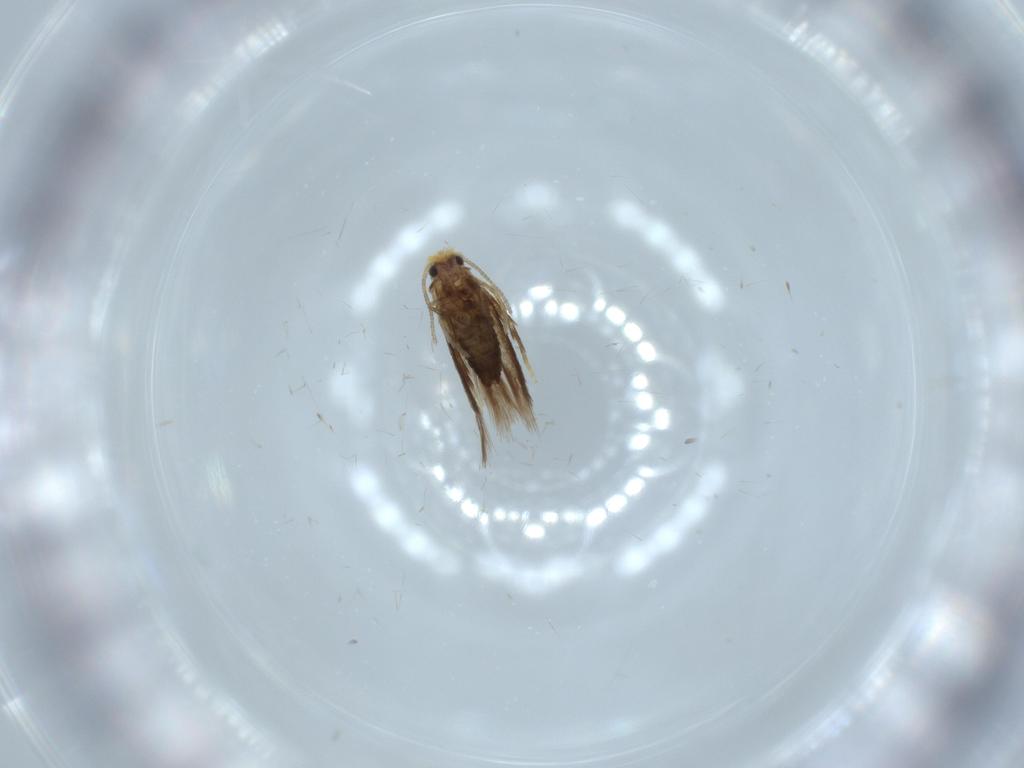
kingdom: Animalia
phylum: Arthropoda
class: Insecta
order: Lepidoptera
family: Nepticulidae
